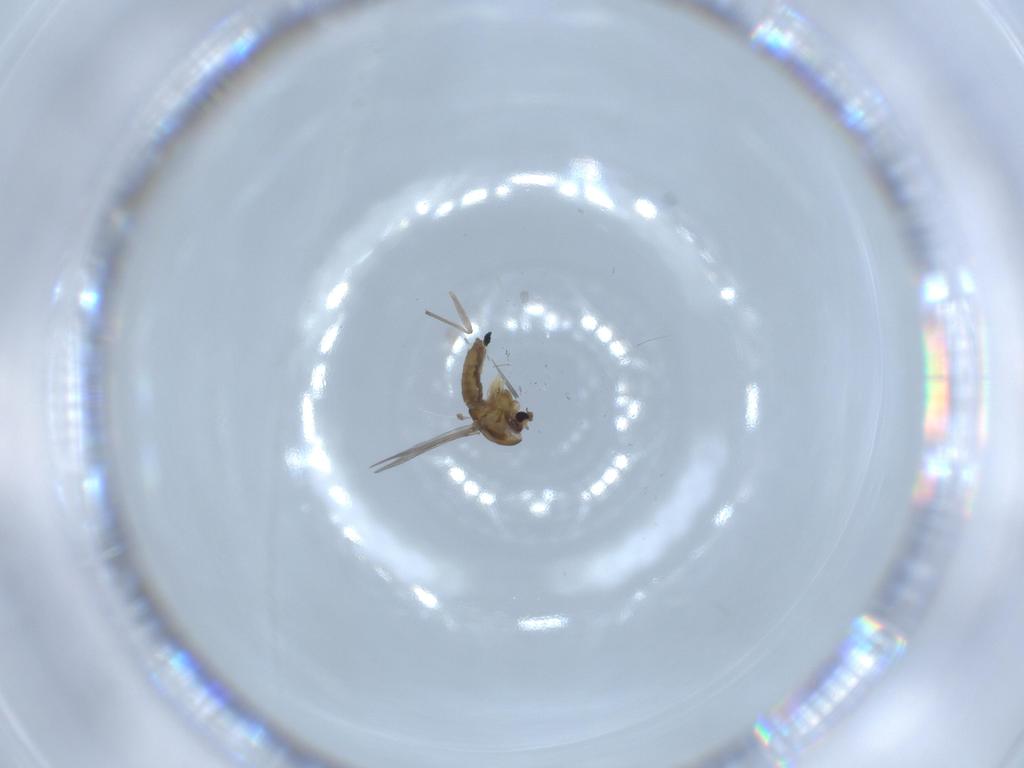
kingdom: Animalia
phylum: Arthropoda
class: Insecta
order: Diptera
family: Chironomidae
